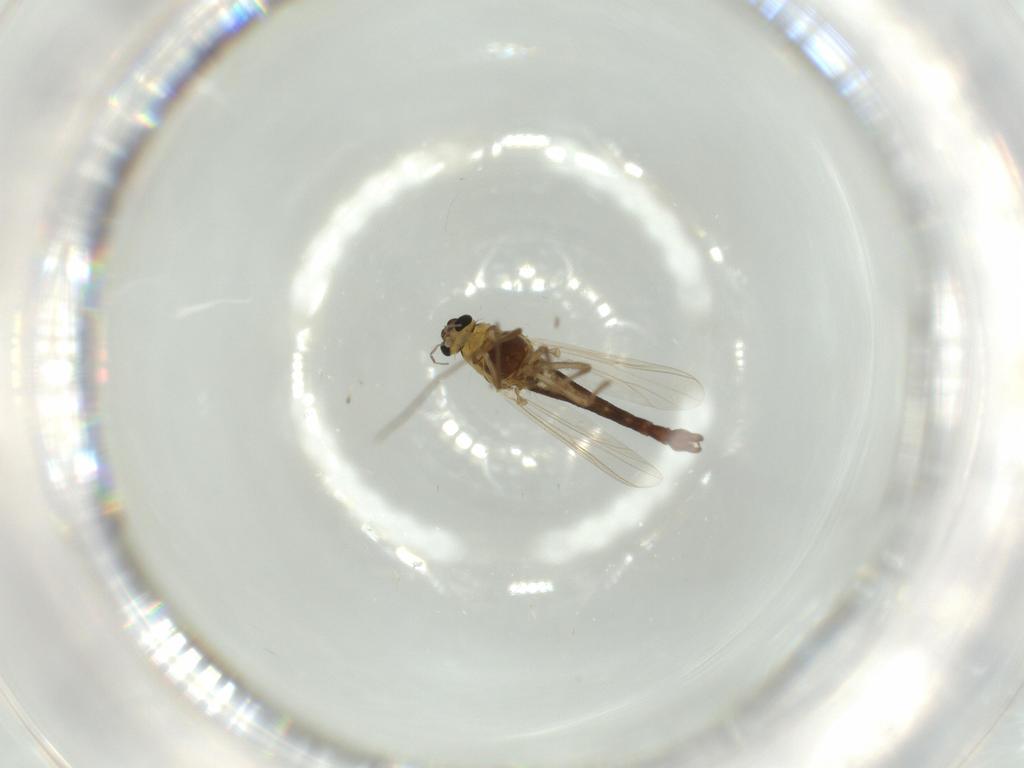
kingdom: Animalia
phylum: Arthropoda
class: Insecta
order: Diptera
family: Chironomidae
